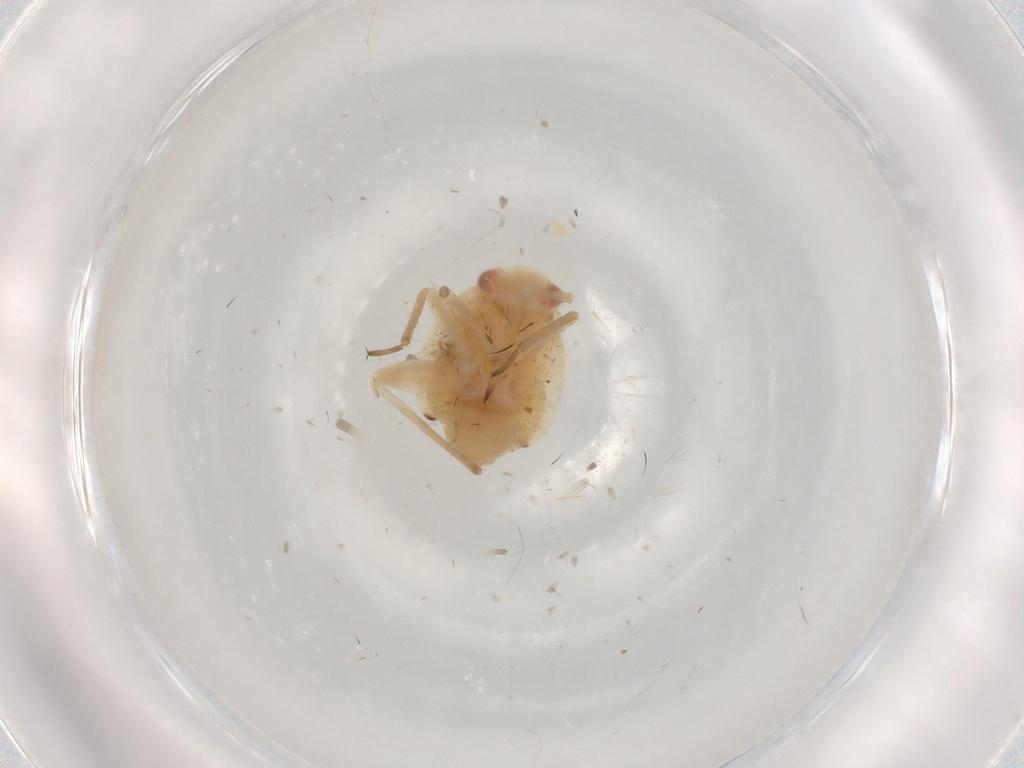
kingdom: Animalia
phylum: Arthropoda
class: Insecta
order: Hemiptera
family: Miridae
